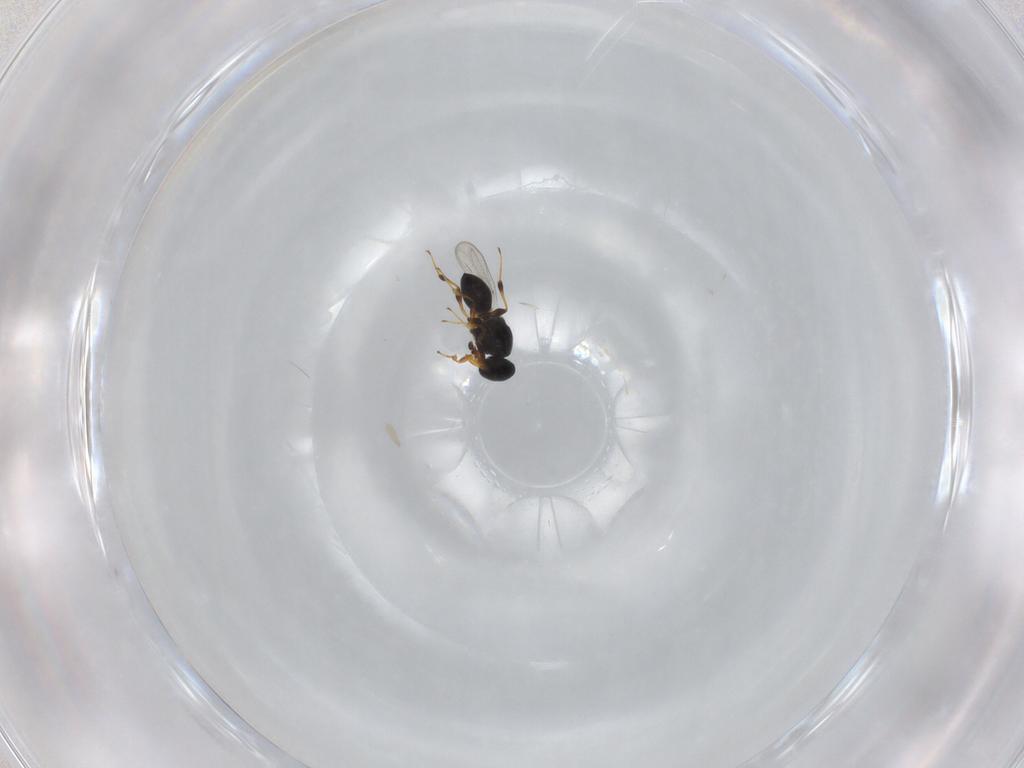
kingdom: Animalia
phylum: Arthropoda
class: Insecta
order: Hymenoptera
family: Platygastridae
